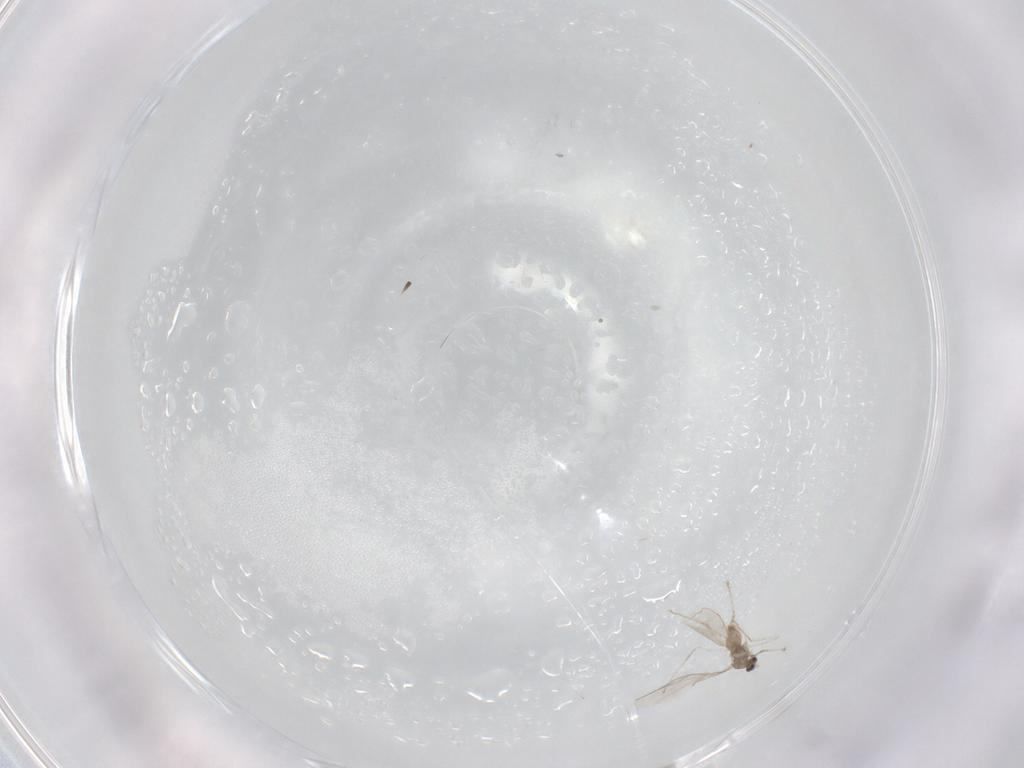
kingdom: Animalia
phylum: Arthropoda
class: Insecta
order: Diptera
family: Cecidomyiidae
